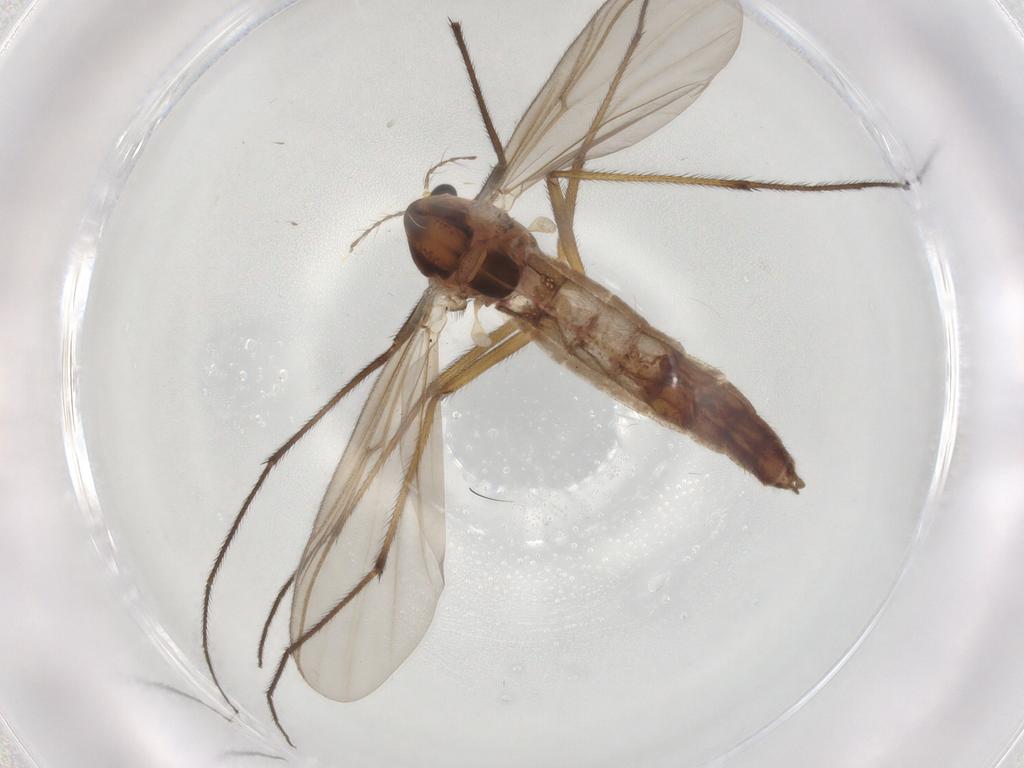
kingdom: Animalia
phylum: Arthropoda
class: Insecta
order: Diptera
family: Chironomidae
